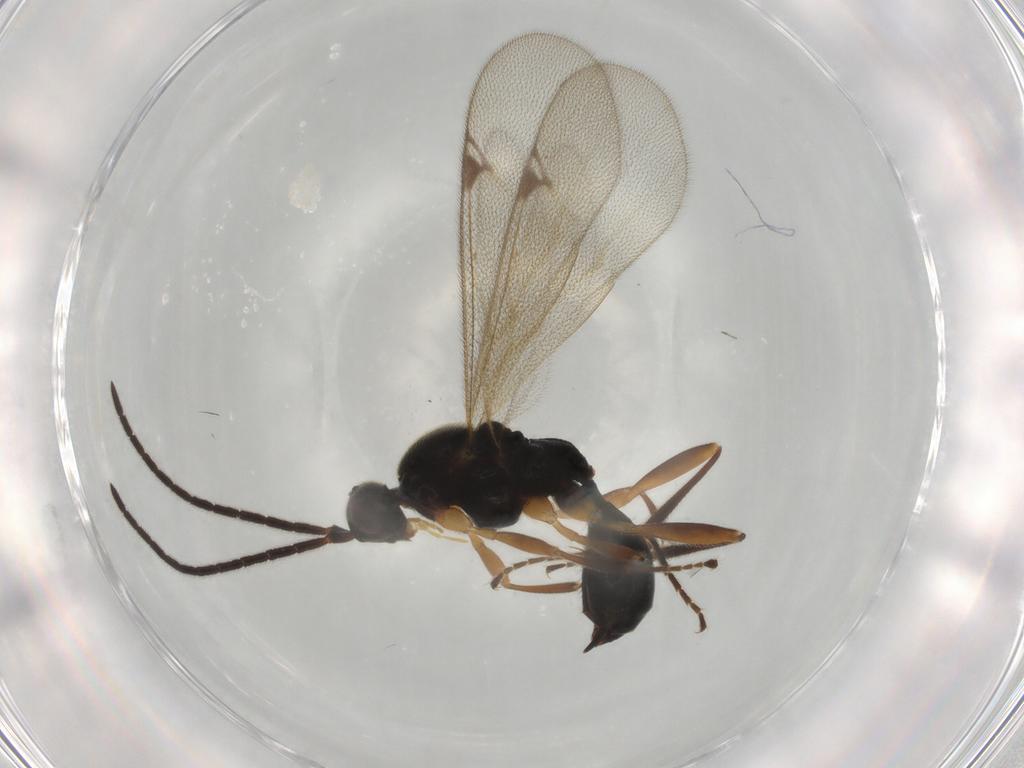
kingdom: Animalia
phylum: Arthropoda
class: Insecta
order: Hymenoptera
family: Proctotrupidae
